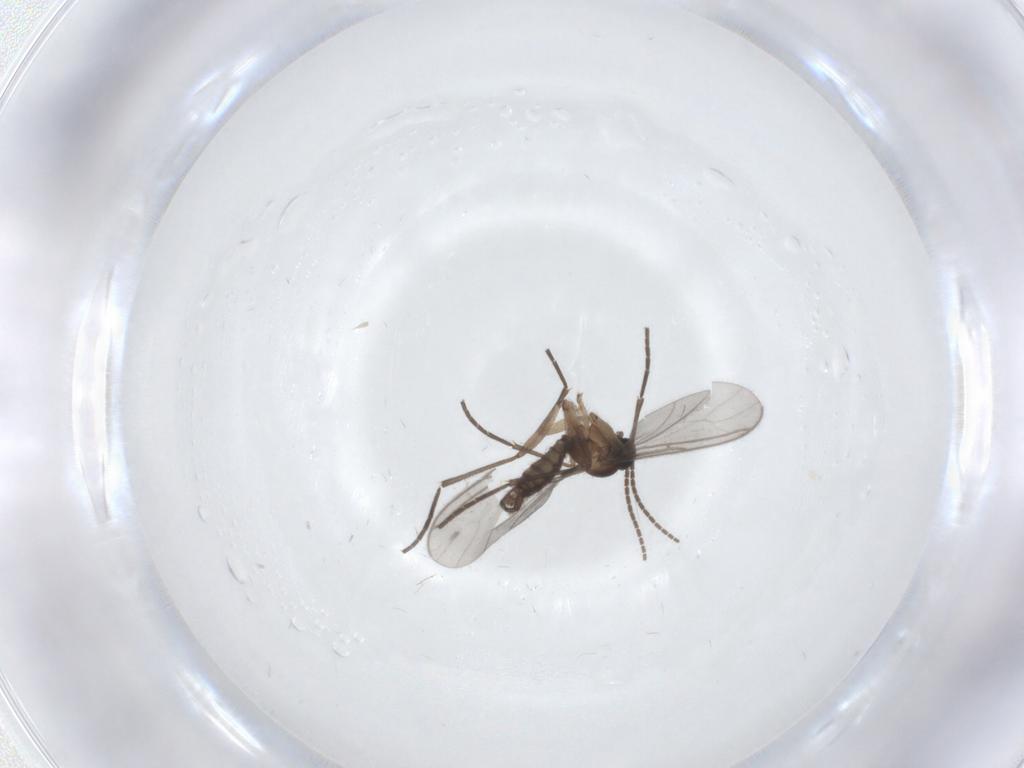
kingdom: Animalia
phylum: Arthropoda
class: Insecta
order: Diptera
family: Sciaridae
